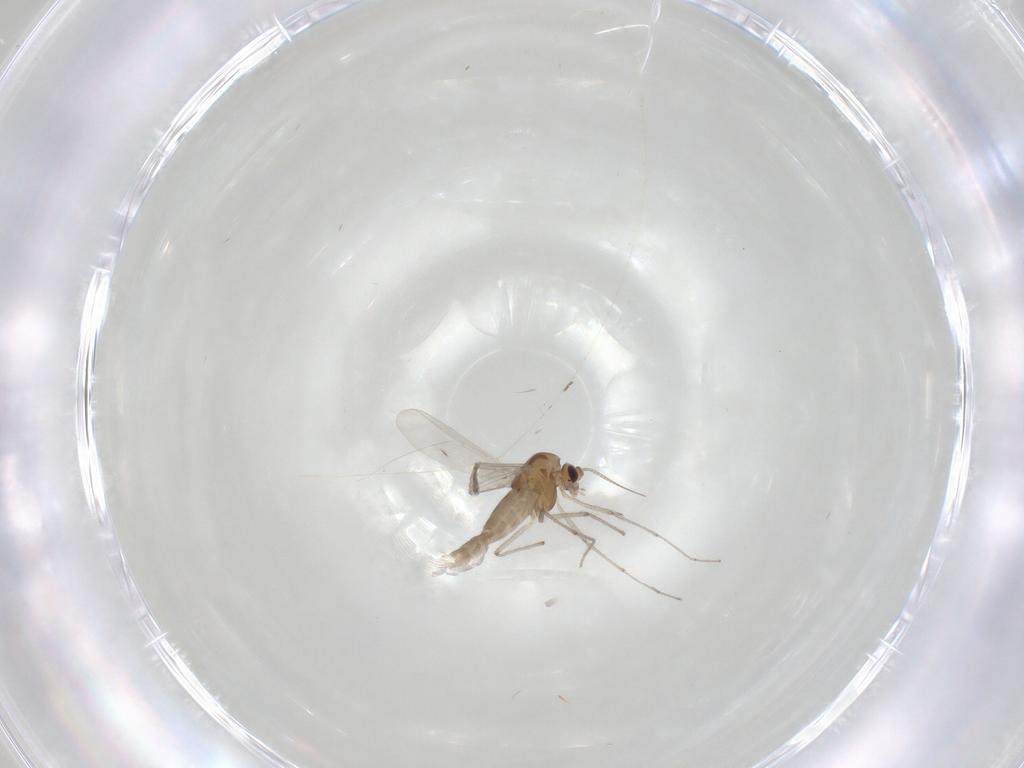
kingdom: Animalia
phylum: Arthropoda
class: Insecta
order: Diptera
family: Chironomidae
